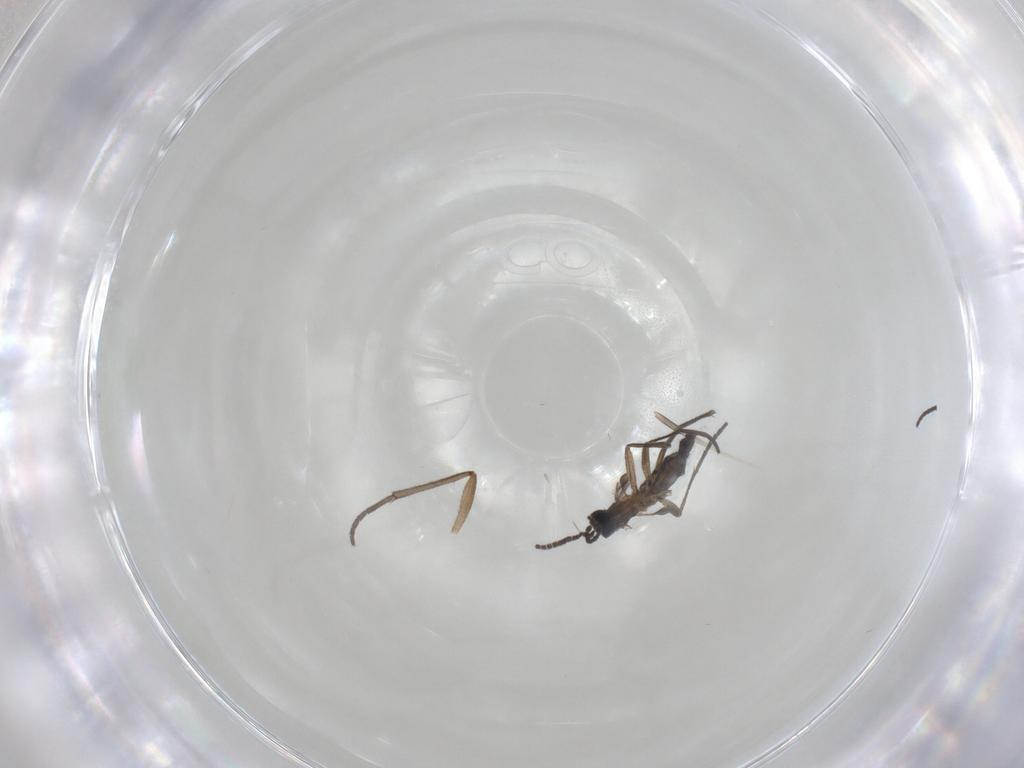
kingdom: Animalia
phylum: Arthropoda
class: Insecta
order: Diptera
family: Sciaridae
